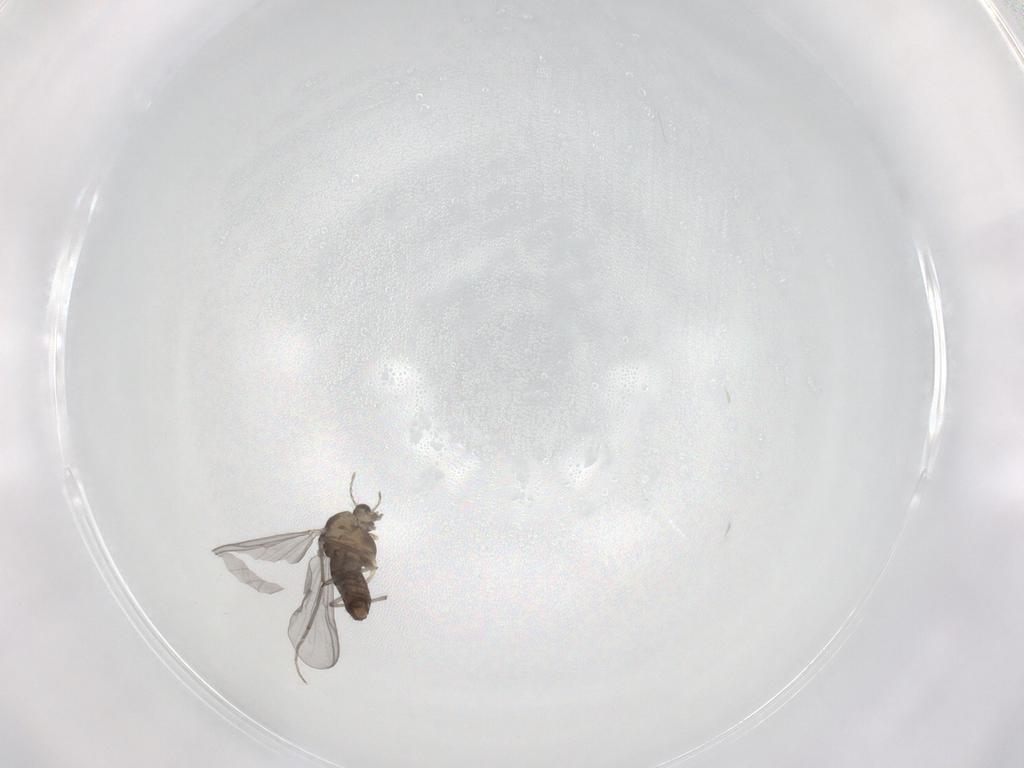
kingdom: Animalia
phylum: Arthropoda
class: Insecta
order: Diptera
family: Chironomidae
